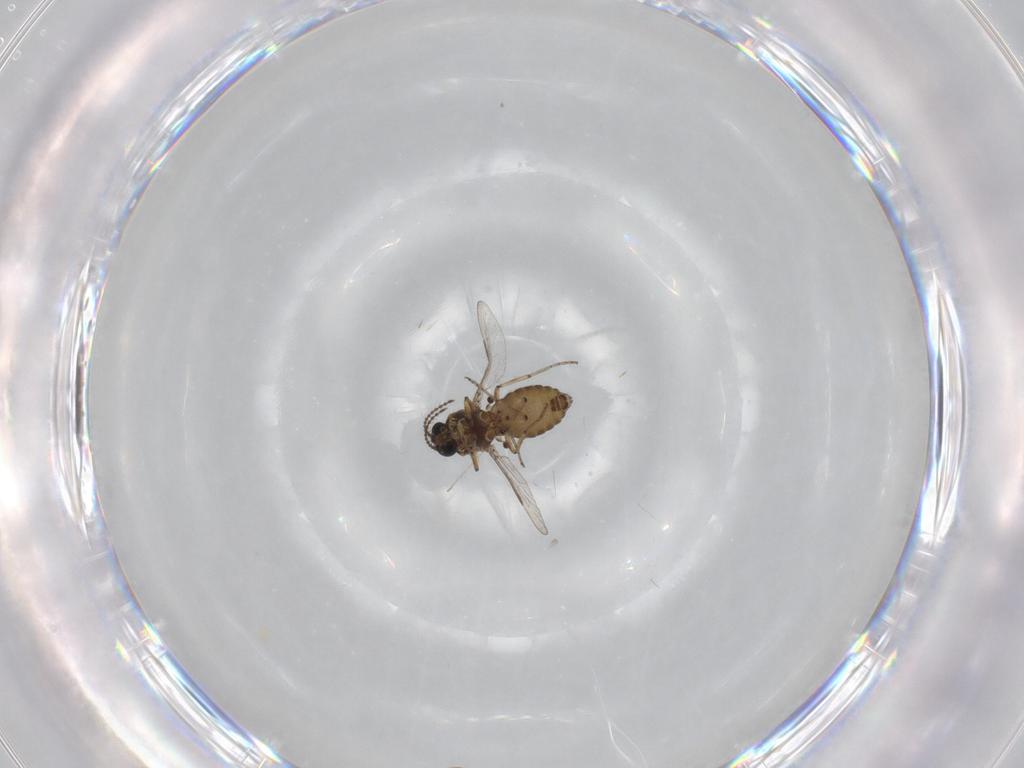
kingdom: Animalia
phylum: Arthropoda
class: Insecta
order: Diptera
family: Ceratopogonidae
